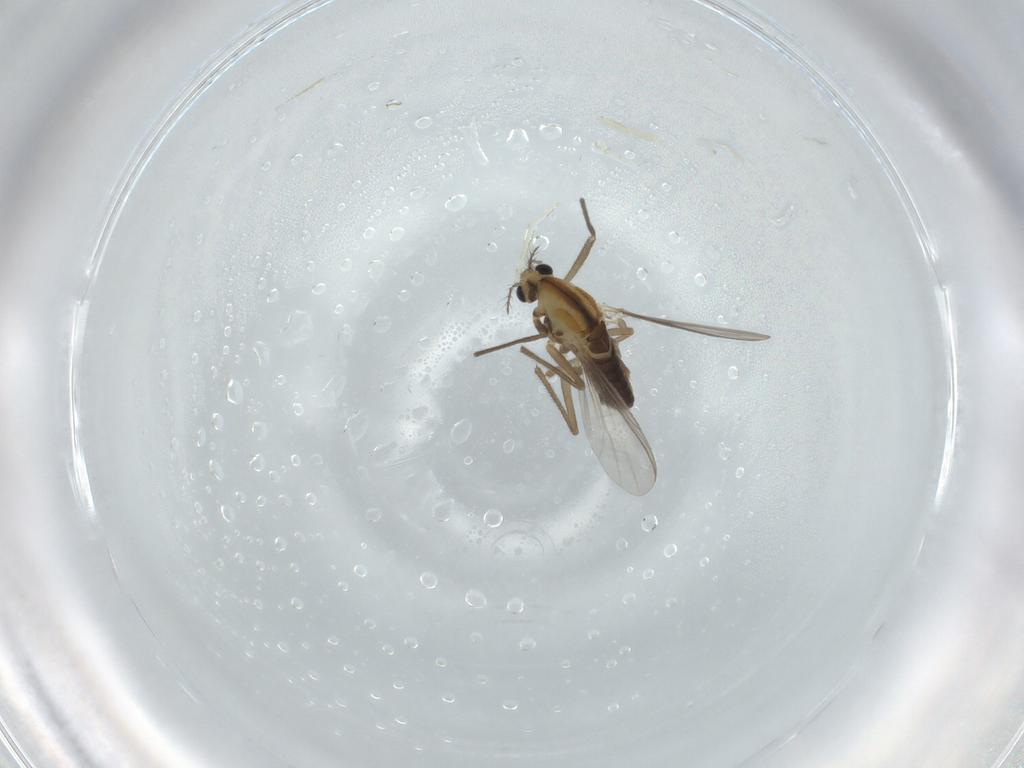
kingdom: Animalia
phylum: Arthropoda
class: Insecta
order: Diptera
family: Chironomidae
